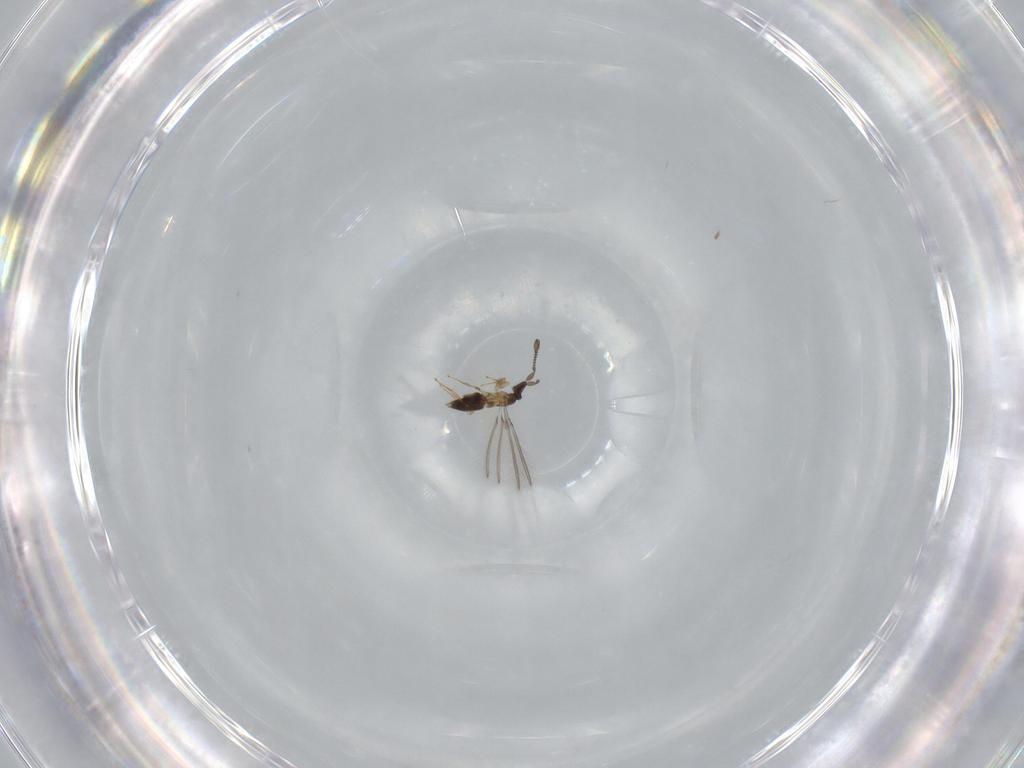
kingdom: Animalia
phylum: Arthropoda
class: Insecta
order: Hymenoptera
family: Mymaridae
